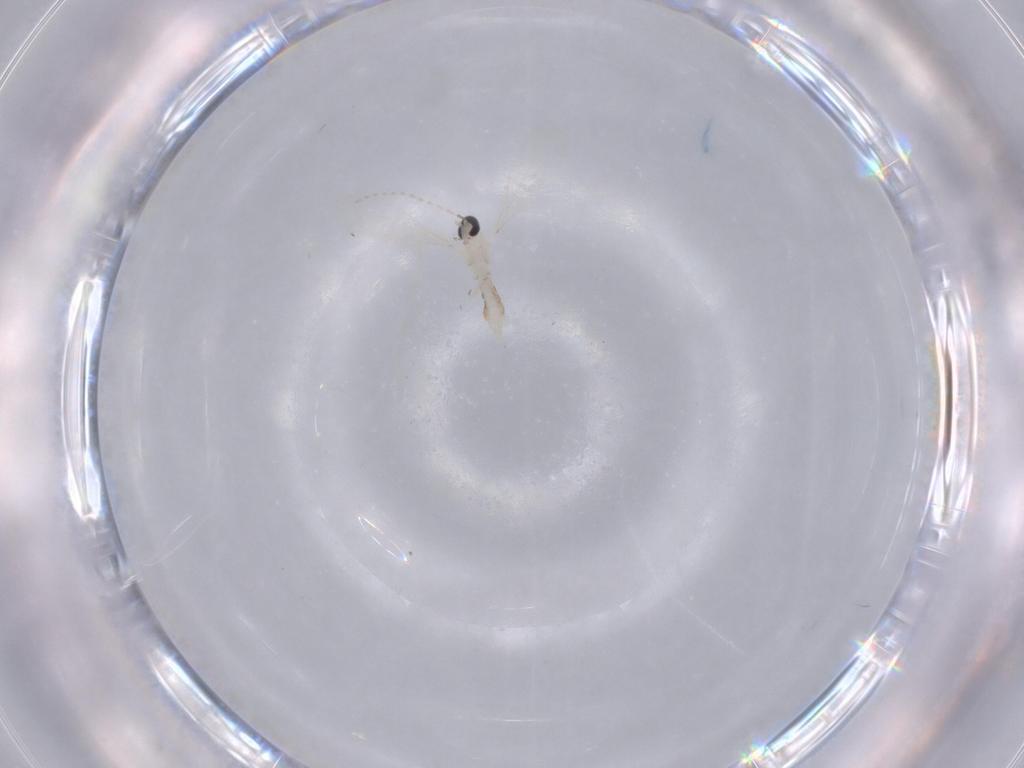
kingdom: Animalia
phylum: Arthropoda
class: Insecta
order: Diptera
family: Cecidomyiidae
